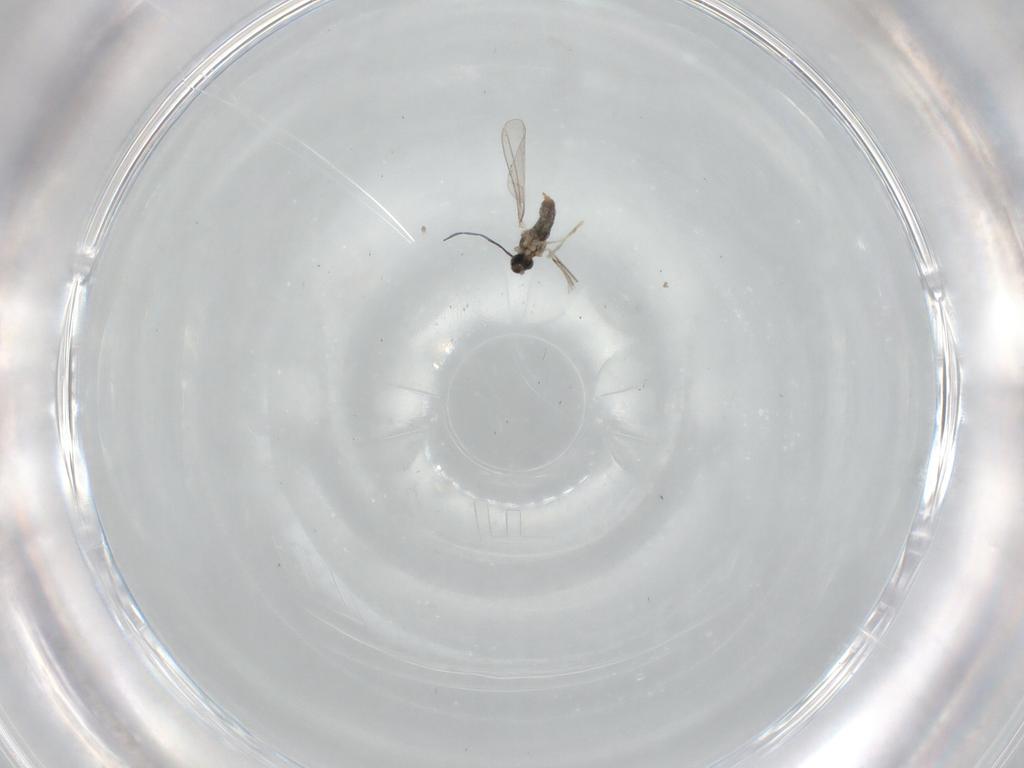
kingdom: Animalia
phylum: Arthropoda
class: Insecta
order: Diptera
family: Cecidomyiidae
